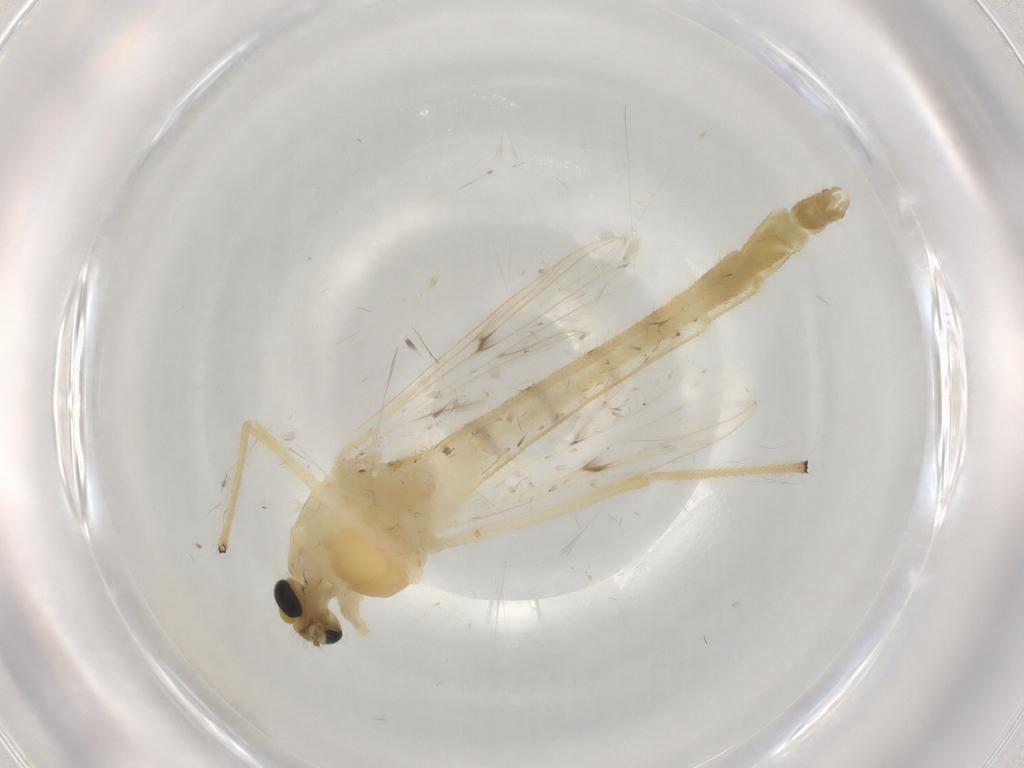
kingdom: Animalia
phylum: Arthropoda
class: Insecta
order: Diptera
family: Chironomidae
